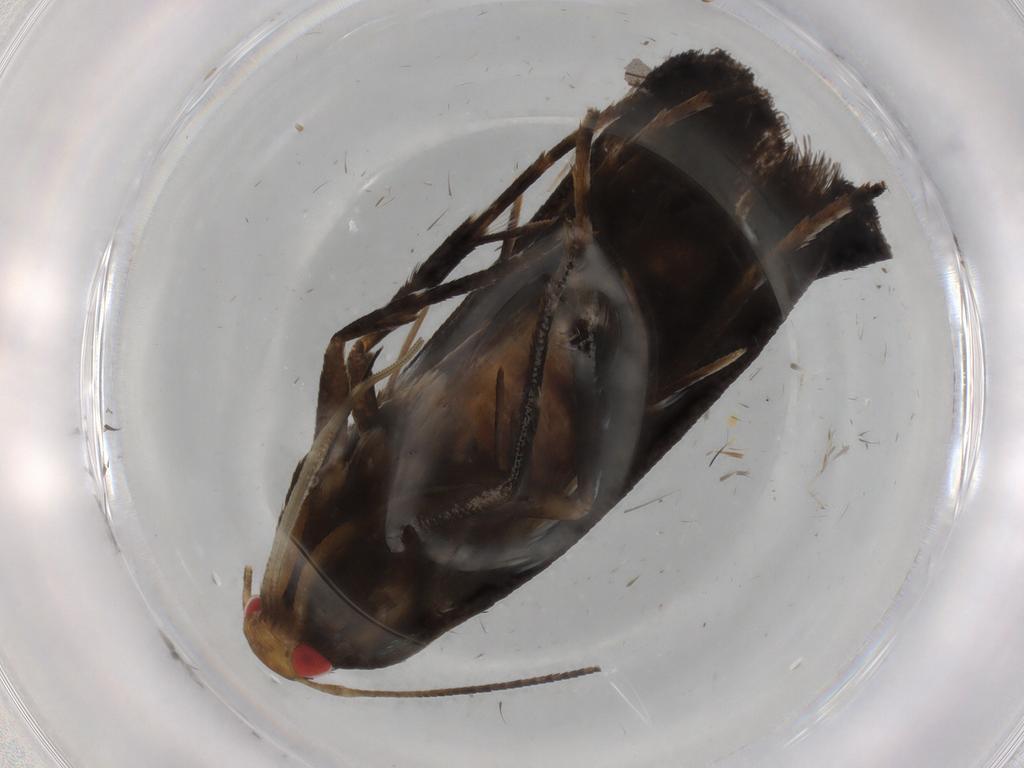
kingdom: Animalia
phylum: Arthropoda
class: Insecta
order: Lepidoptera
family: Gelechiidae
